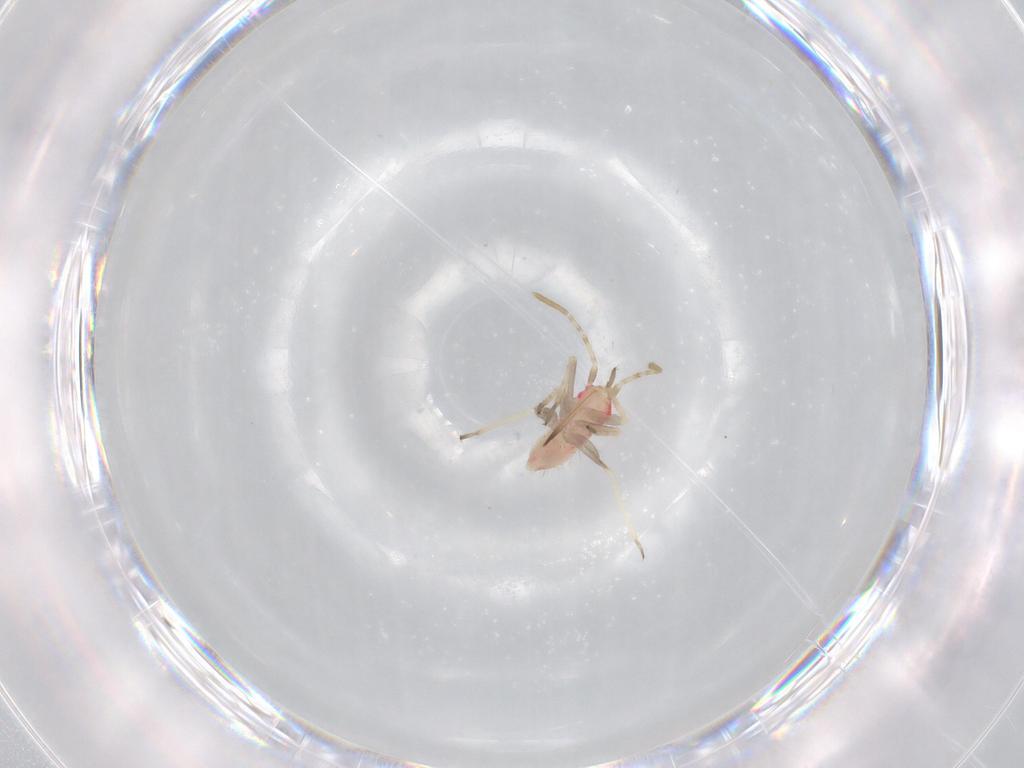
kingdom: Animalia
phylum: Arthropoda
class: Insecta
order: Hemiptera
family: Miridae
